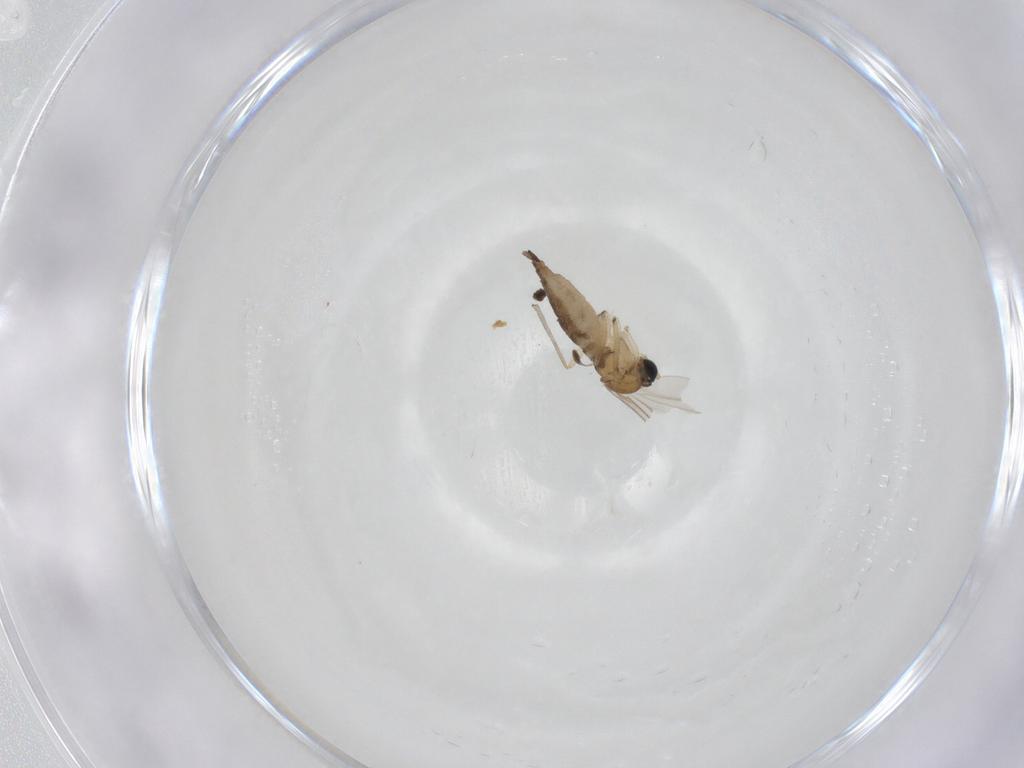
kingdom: Animalia
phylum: Arthropoda
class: Insecta
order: Diptera
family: Sciaridae
